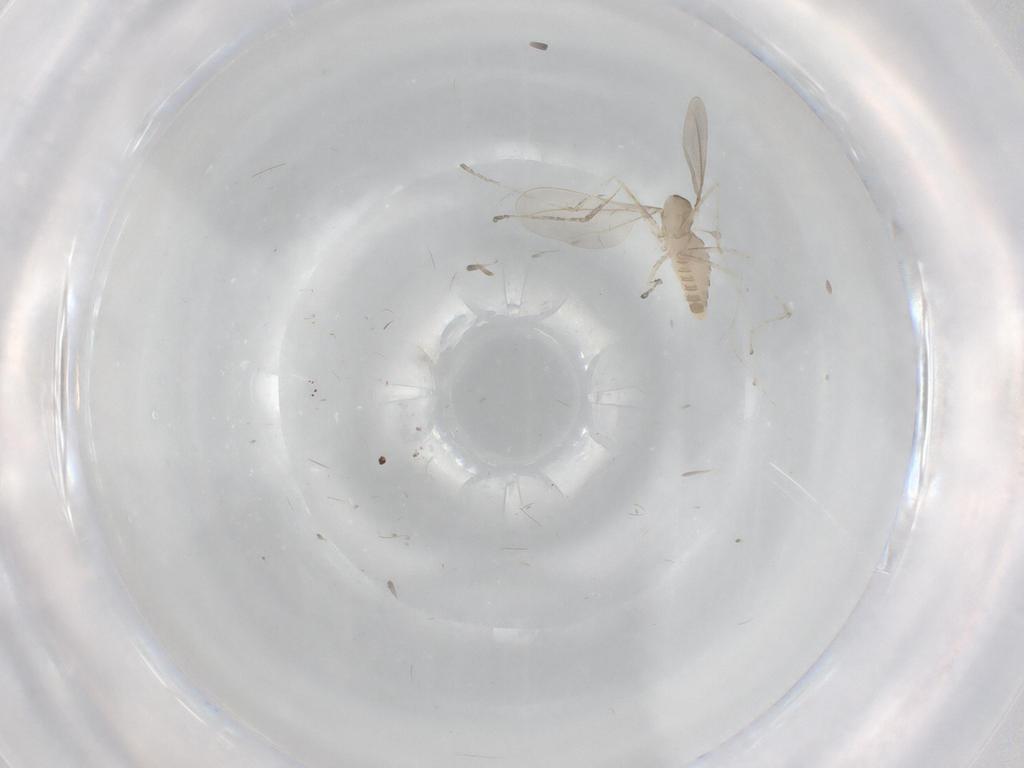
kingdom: Animalia
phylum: Arthropoda
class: Insecta
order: Diptera
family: Cecidomyiidae
